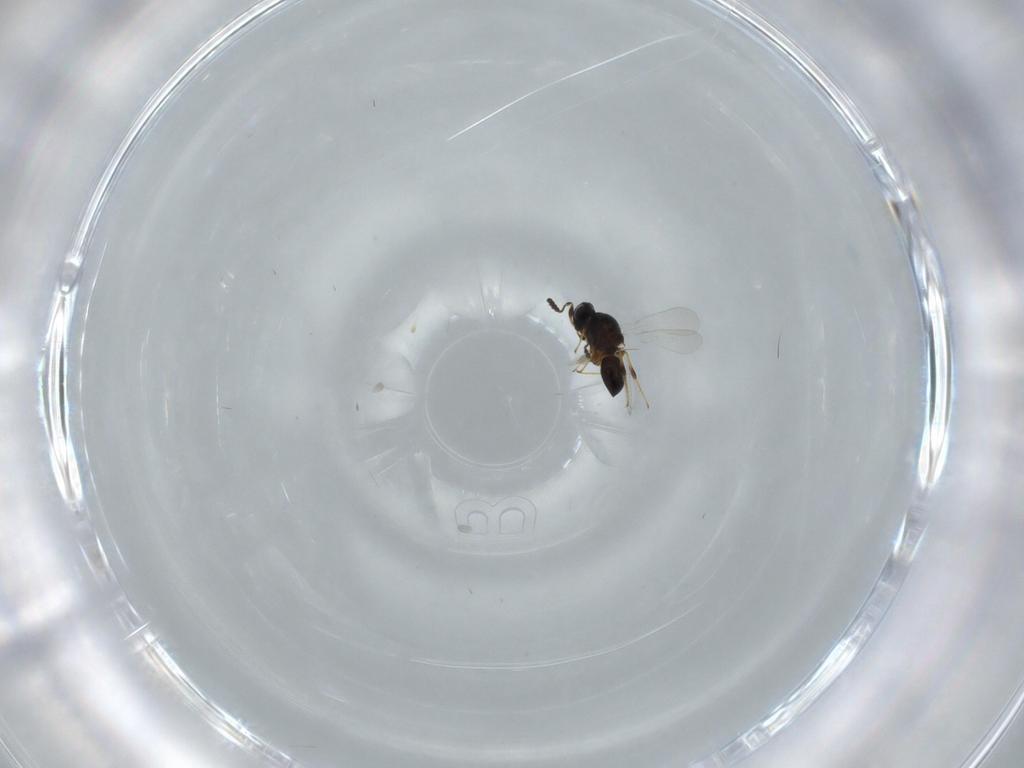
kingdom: Animalia
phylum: Arthropoda
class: Insecta
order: Hymenoptera
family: Platygastridae
